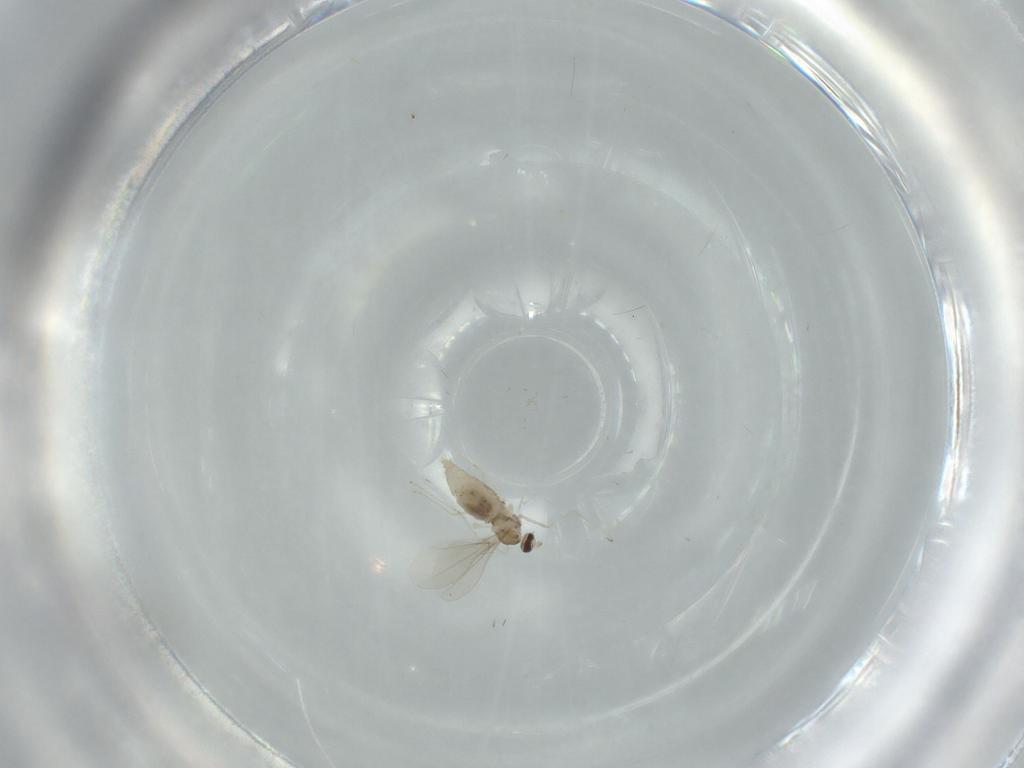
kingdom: Animalia
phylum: Arthropoda
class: Insecta
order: Diptera
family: Cecidomyiidae
